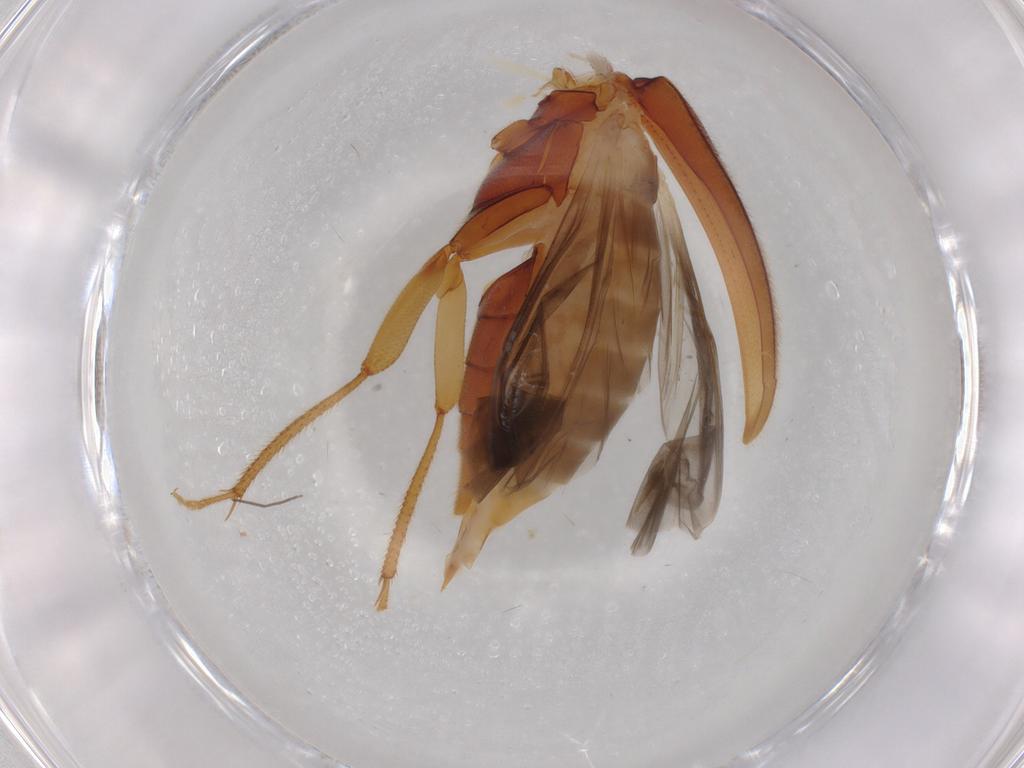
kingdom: Animalia
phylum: Arthropoda
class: Insecta
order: Coleoptera
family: Ptilodactylidae
